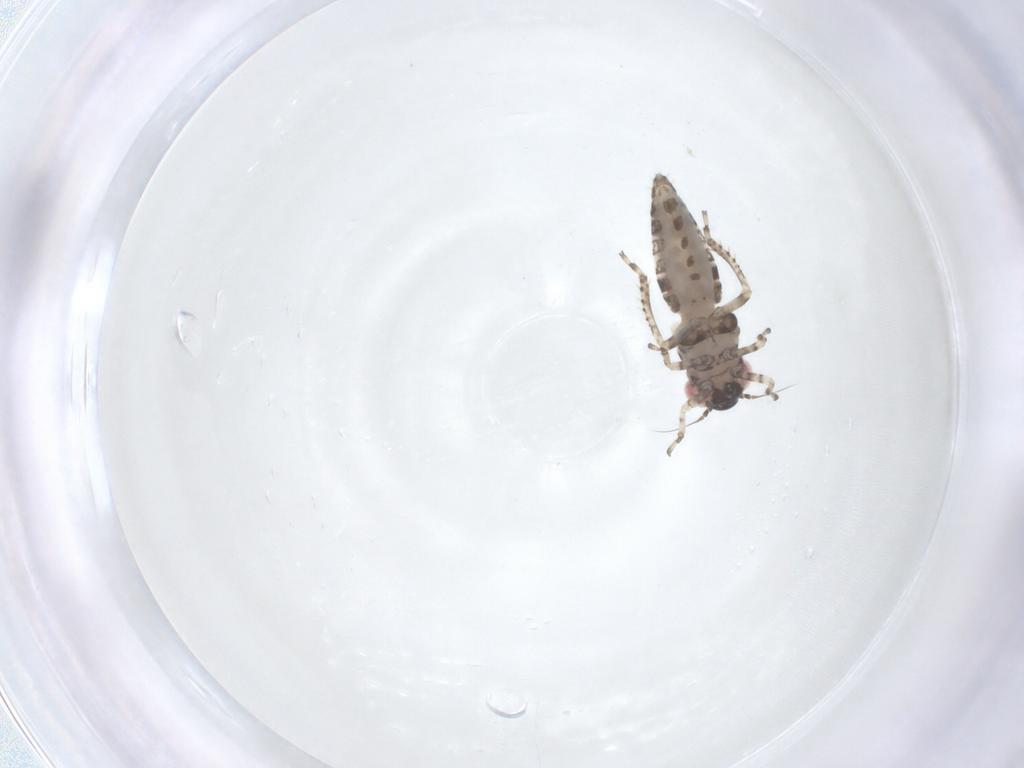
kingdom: Animalia
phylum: Arthropoda
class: Insecta
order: Hemiptera
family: Cicadellidae
